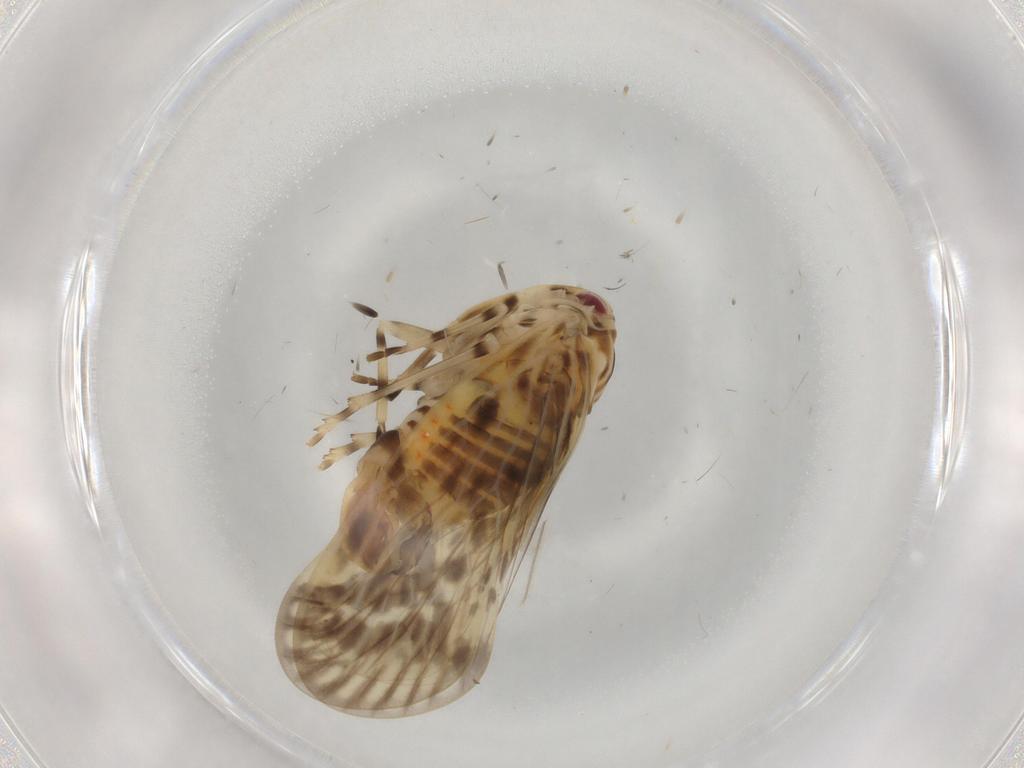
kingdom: Animalia
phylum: Arthropoda
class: Insecta
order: Hemiptera
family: Derbidae
